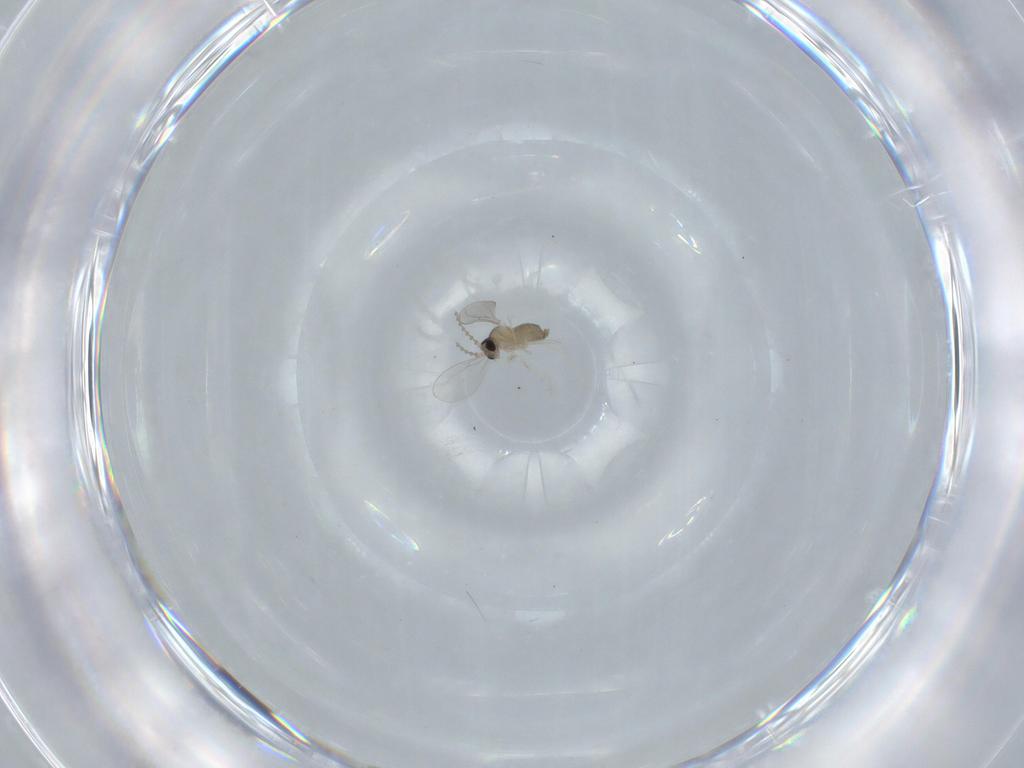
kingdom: Animalia
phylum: Arthropoda
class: Insecta
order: Diptera
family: Cecidomyiidae
